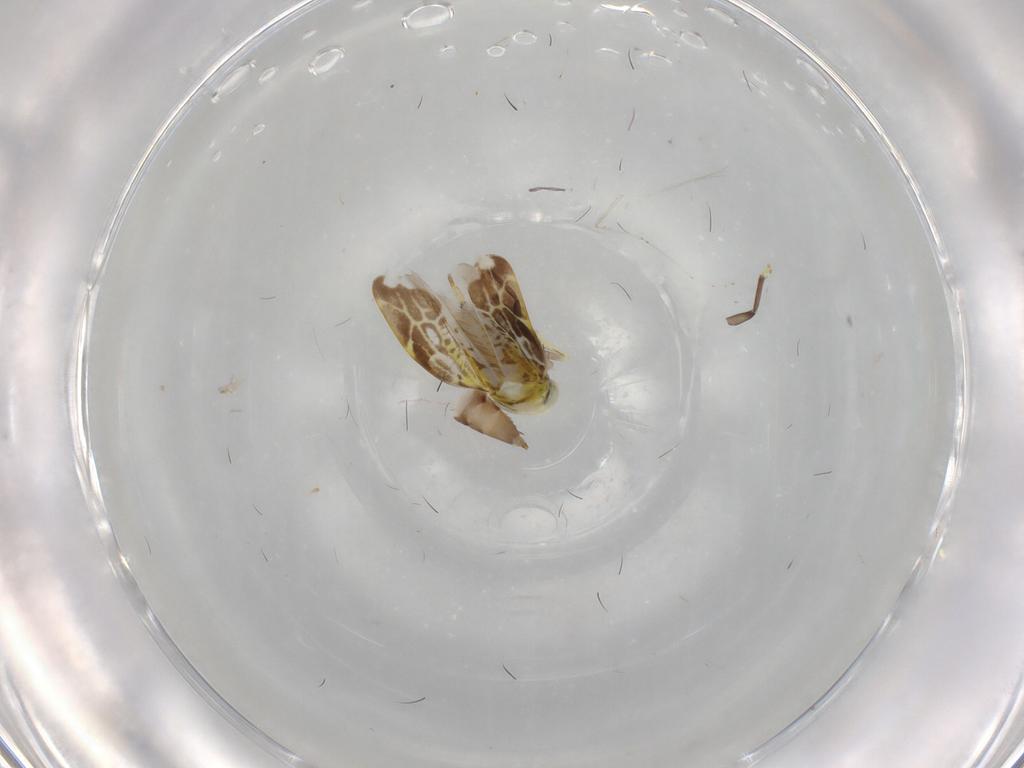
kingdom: Animalia
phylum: Arthropoda
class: Insecta
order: Hemiptera
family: Cicadellidae
